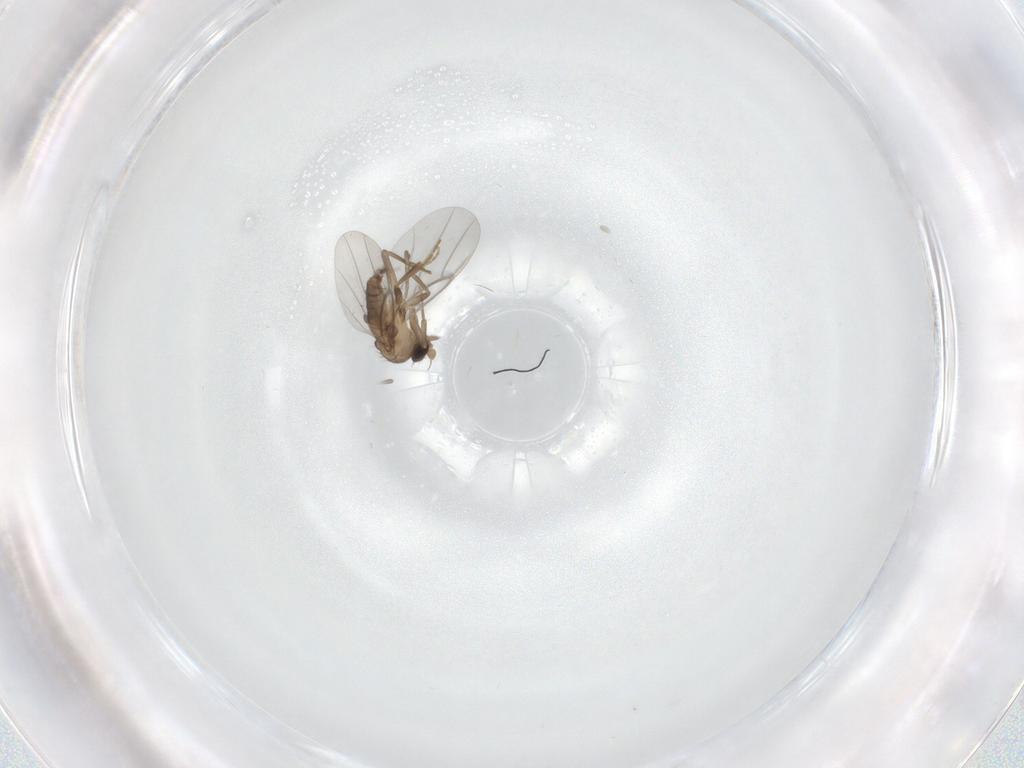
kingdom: Animalia
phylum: Arthropoda
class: Insecta
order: Diptera
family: Phoridae
